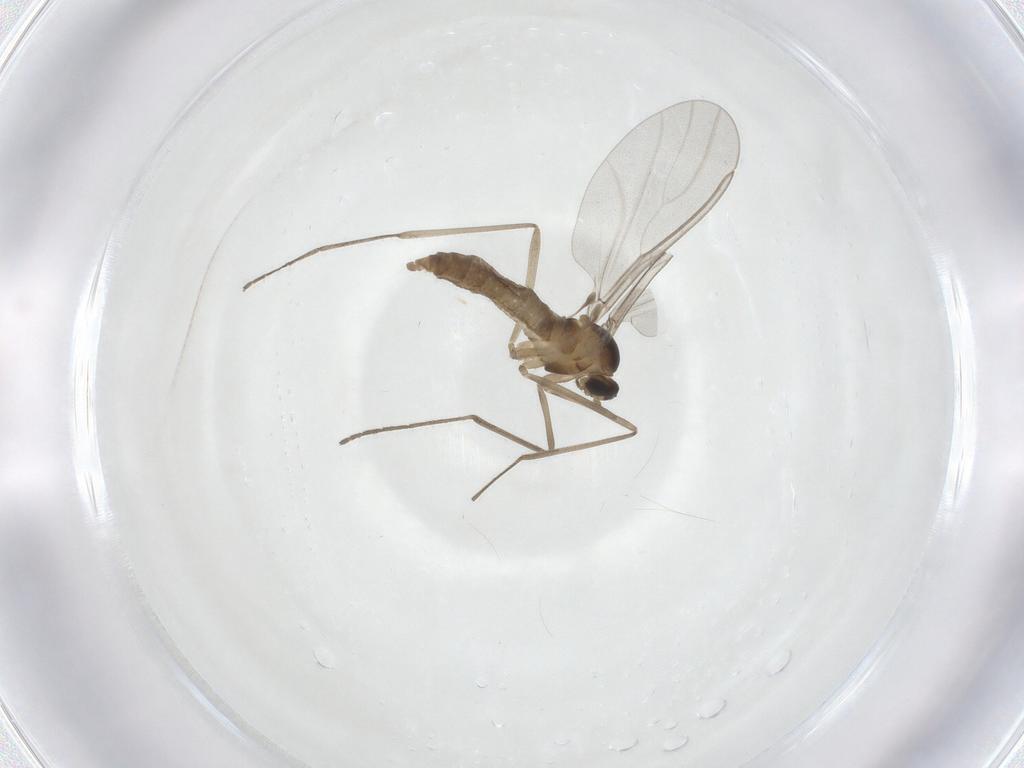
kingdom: Animalia
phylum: Arthropoda
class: Insecta
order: Diptera
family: Cecidomyiidae
